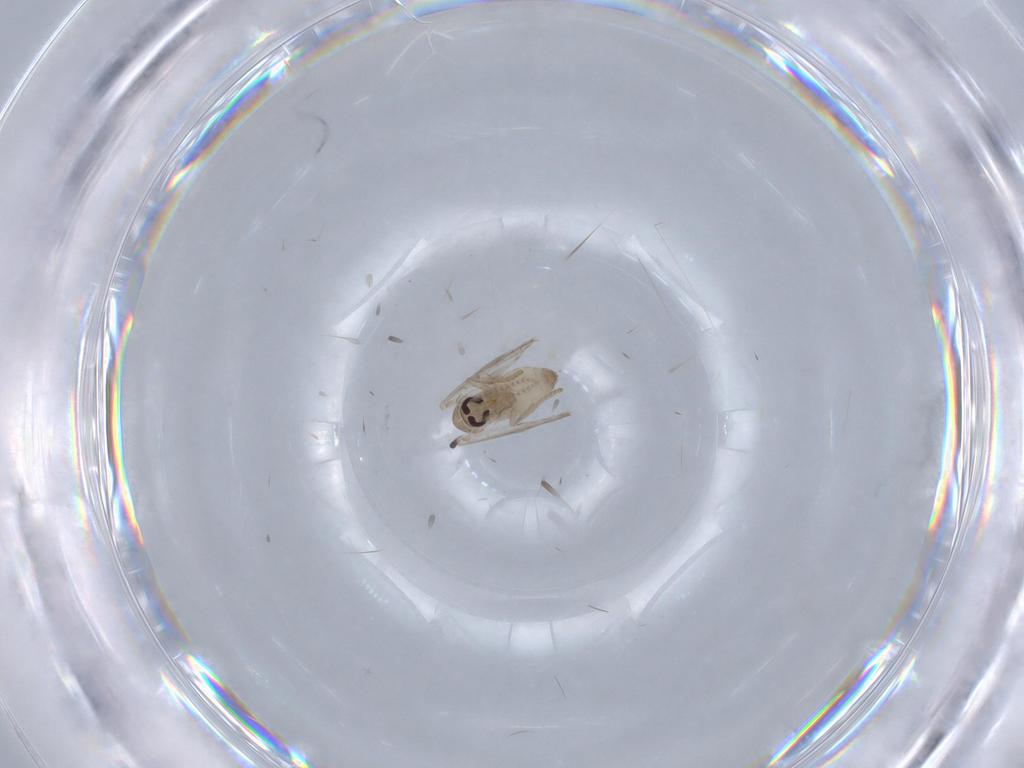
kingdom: Animalia
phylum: Arthropoda
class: Insecta
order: Diptera
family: Psychodidae
